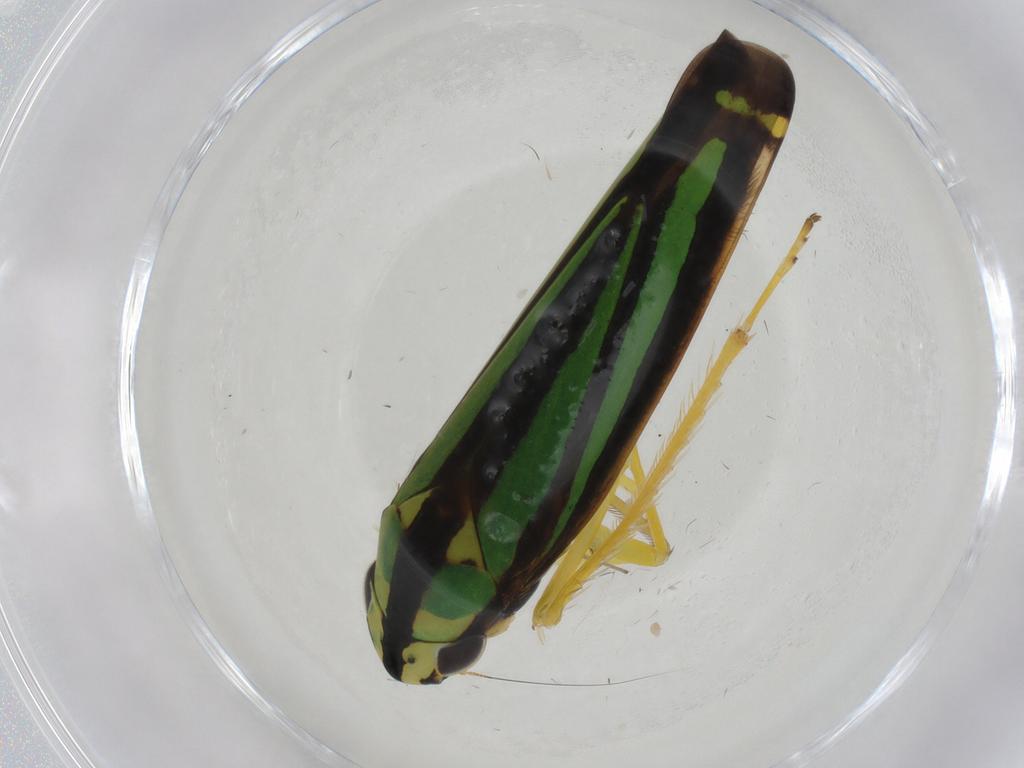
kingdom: Animalia
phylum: Arthropoda
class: Insecta
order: Hemiptera
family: Cicadellidae
